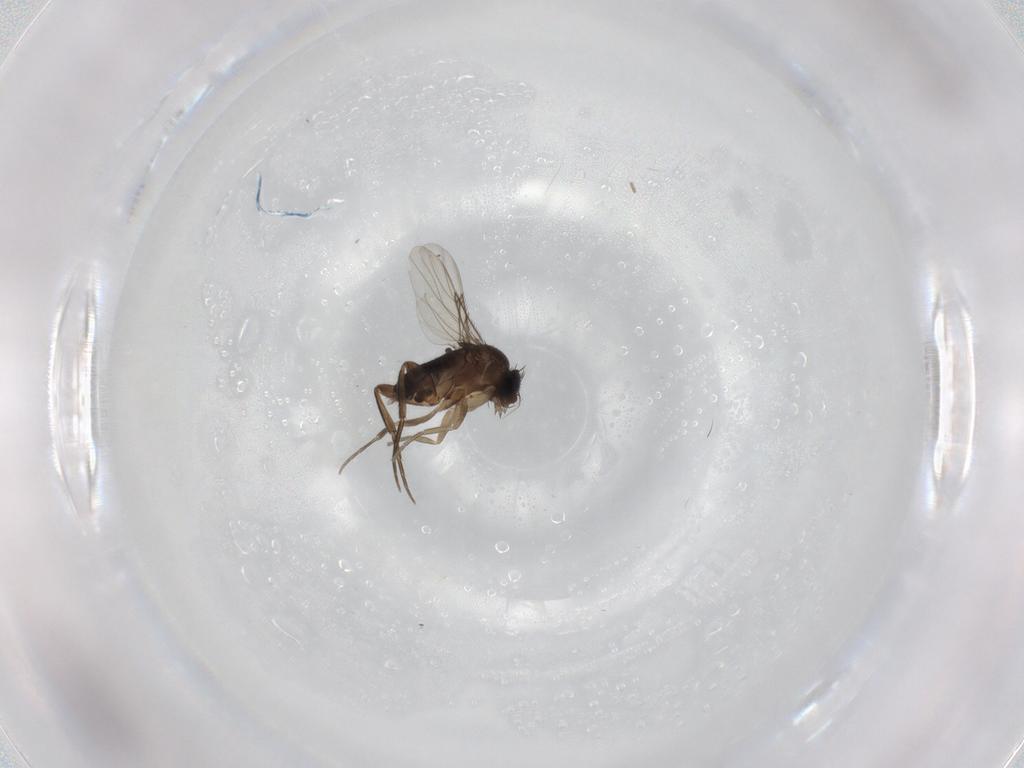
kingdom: Animalia
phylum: Arthropoda
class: Insecta
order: Diptera
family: Phoridae
